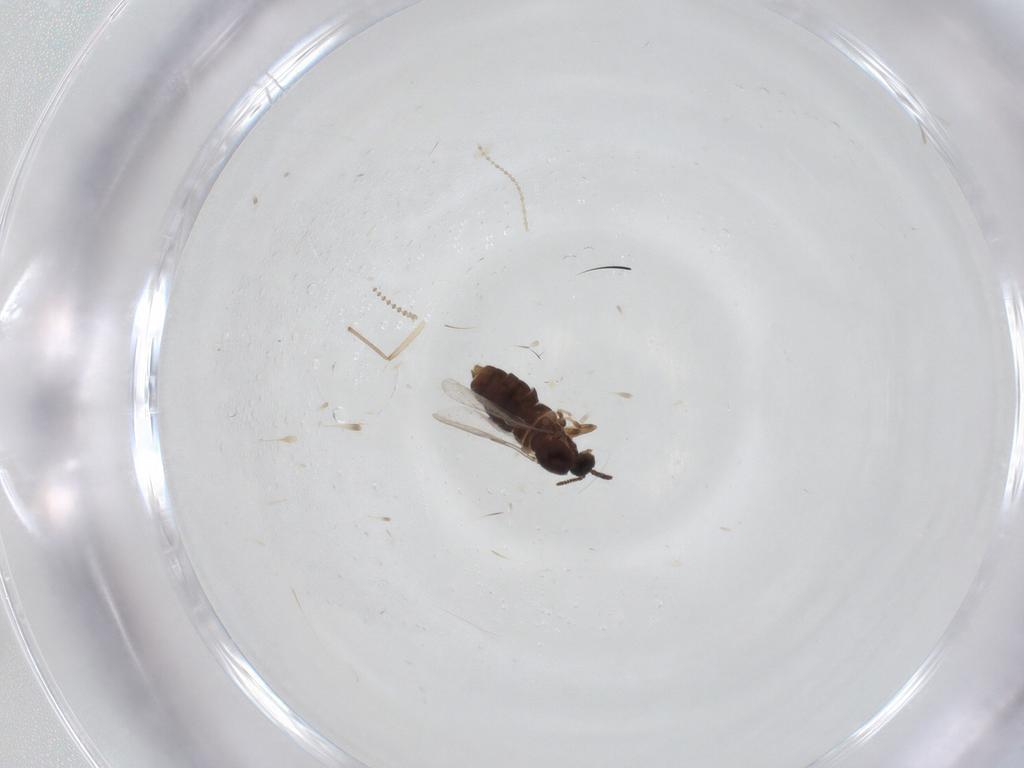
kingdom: Animalia
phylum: Arthropoda
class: Insecta
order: Diptera
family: Scatopsidae
